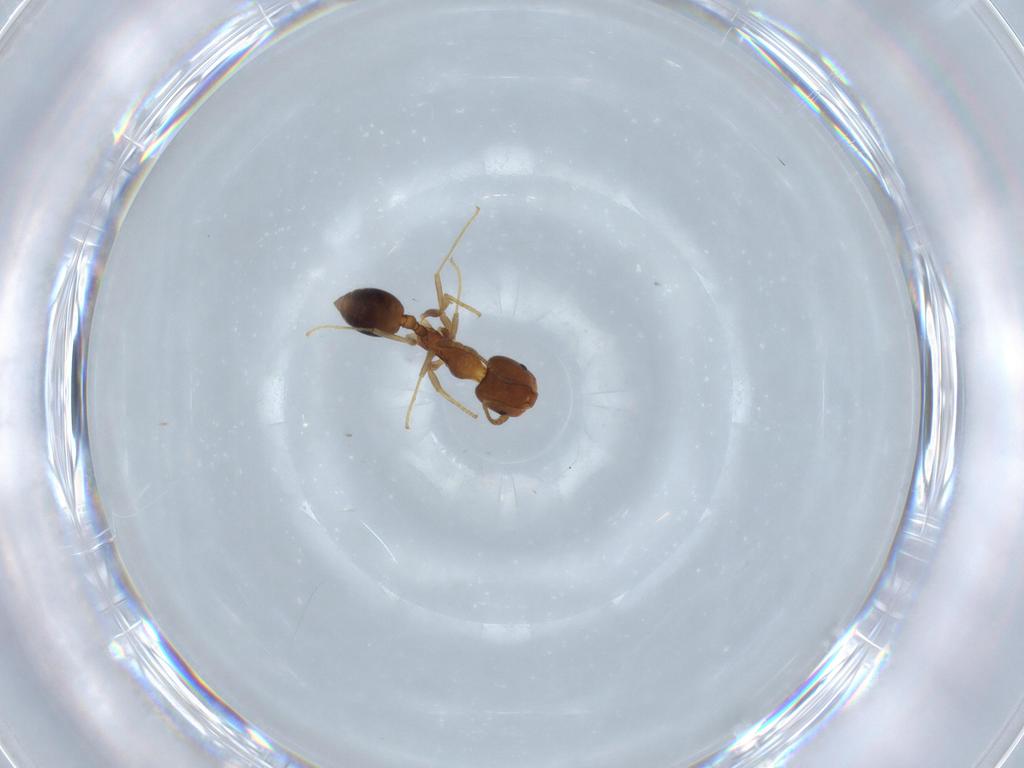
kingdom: Animalia
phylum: Arthropoda
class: Insecta
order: Hymenoptera
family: Formicidae
